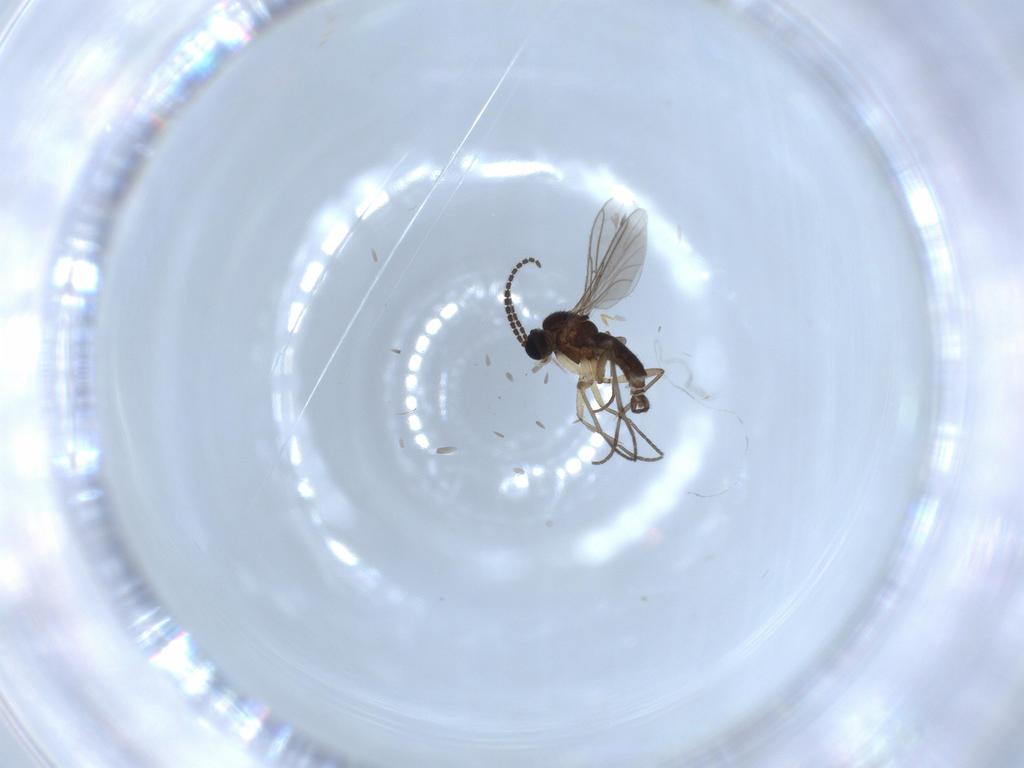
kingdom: Animalia
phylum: Arthropoda
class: Insecta
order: Diptera
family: Sciaridae
